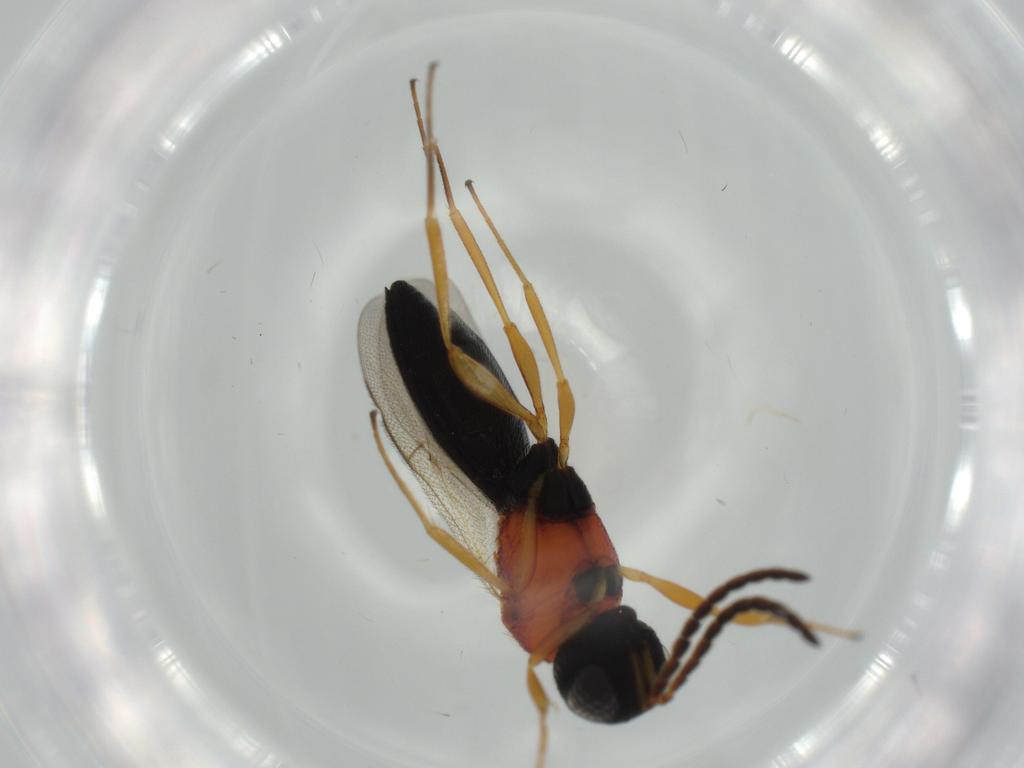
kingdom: Animalia
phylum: Arthropoda
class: Insecta
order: Hymenoptera
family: Scelionidae
